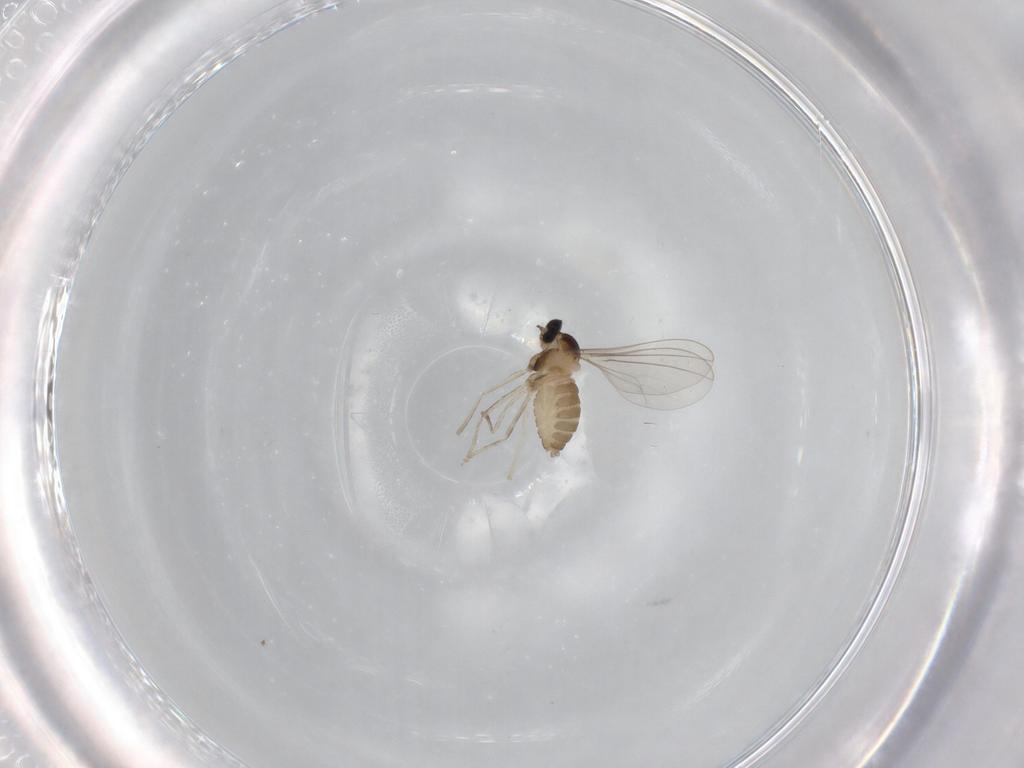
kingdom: Animalia
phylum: Arthropoda
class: Insecta
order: Diptera
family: Cecidomyiidae
